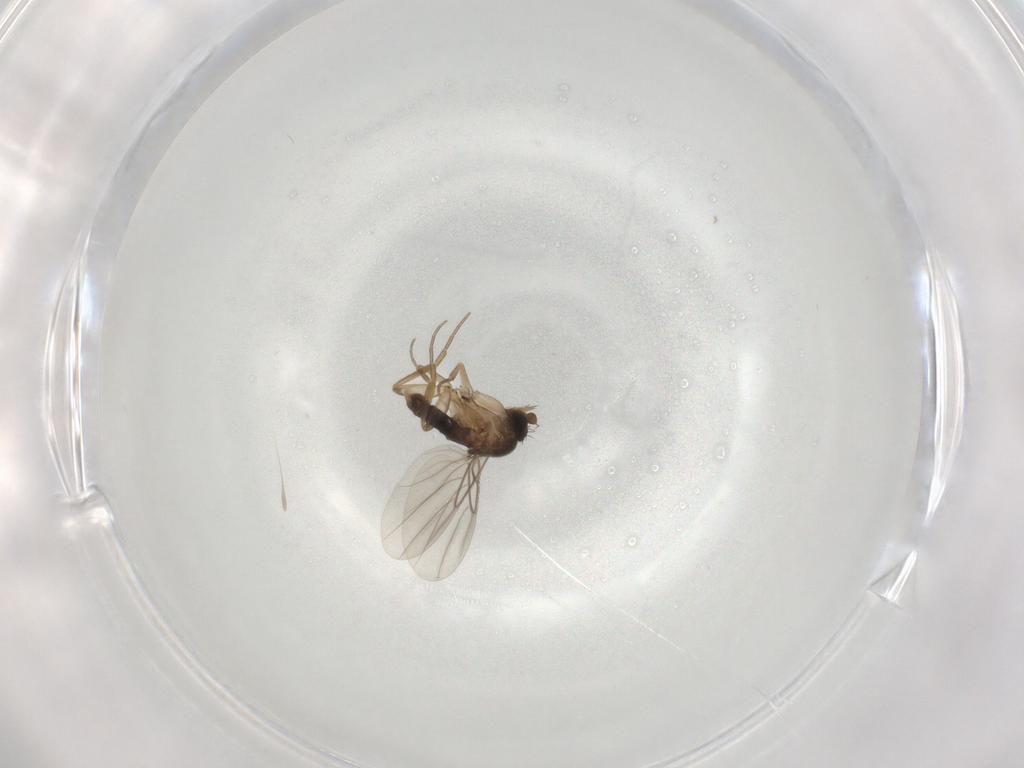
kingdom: Animalia
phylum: Arthropoda
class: Insecta
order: Diptera
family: Phoridae
